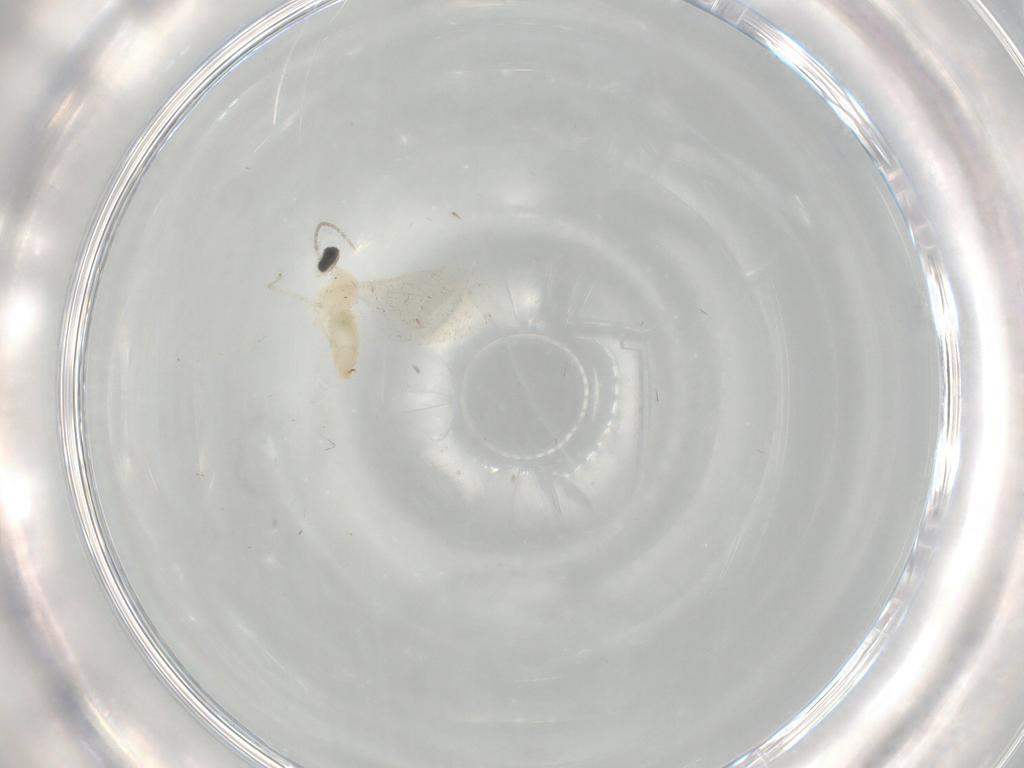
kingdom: Animalia
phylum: Arthropoda
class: Insecta
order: Diptera
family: Cecidomyiidae
